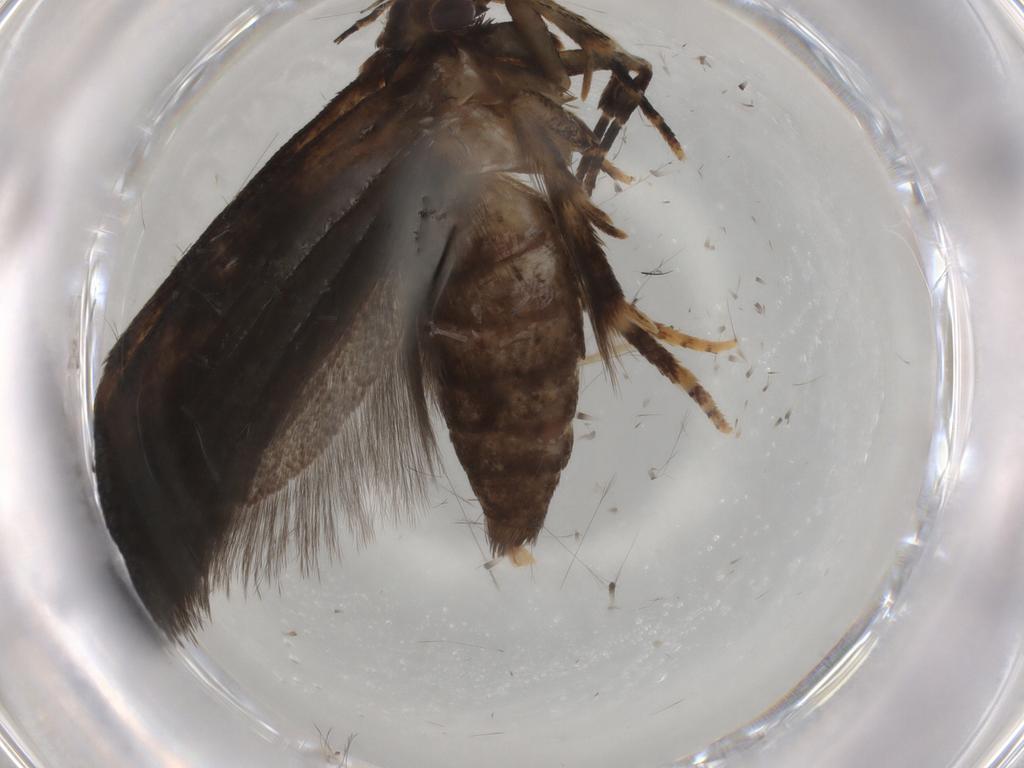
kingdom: Animalia
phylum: Arthropoda
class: Insecta
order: Lepidoptera
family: Gelechiidae
